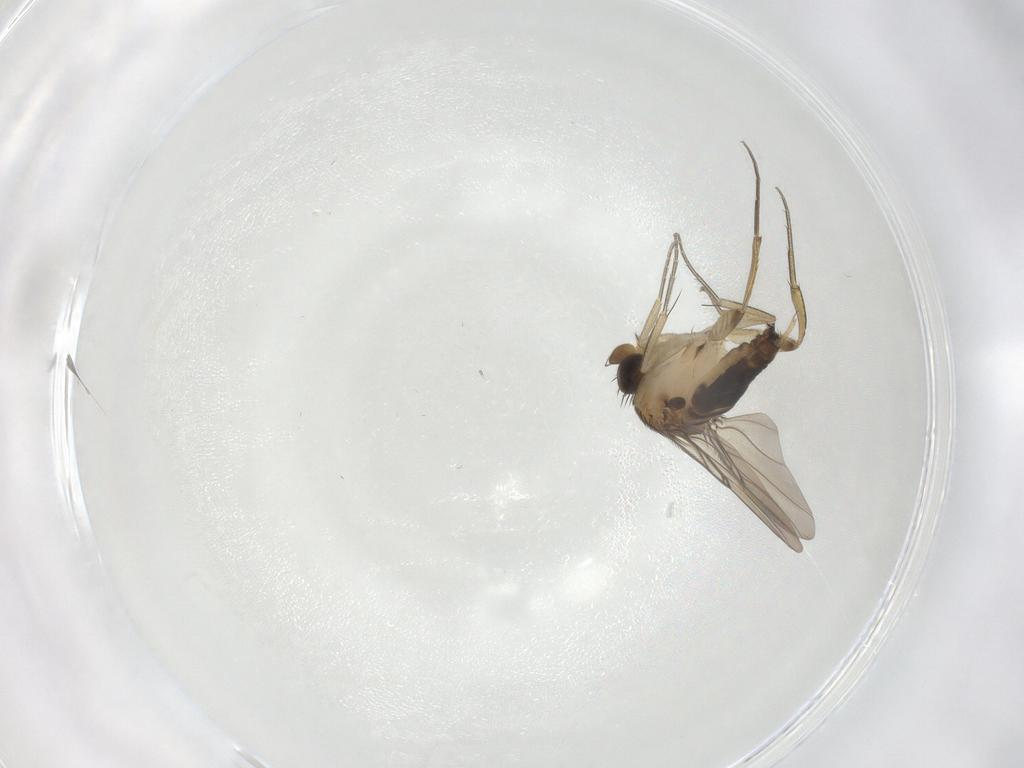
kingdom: Animalia
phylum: Arthropoda
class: Insecta
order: Diptera
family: Phoridae
